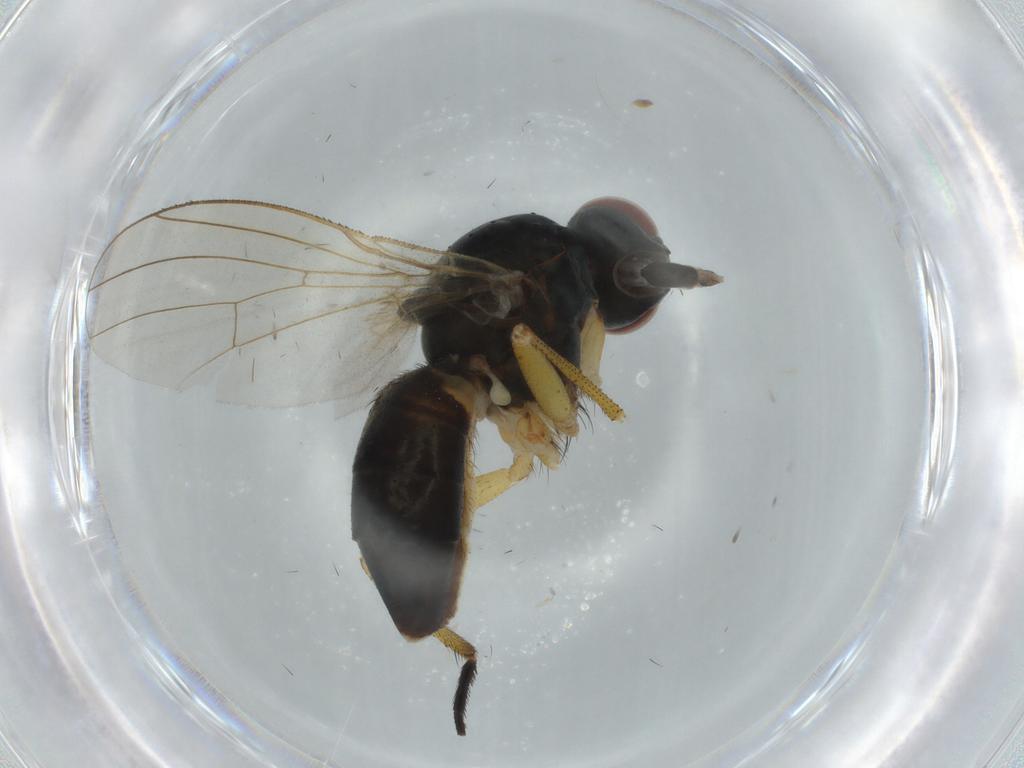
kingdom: Animalia
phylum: Arthropoda
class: Insecta
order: Diptera
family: Muscidae
